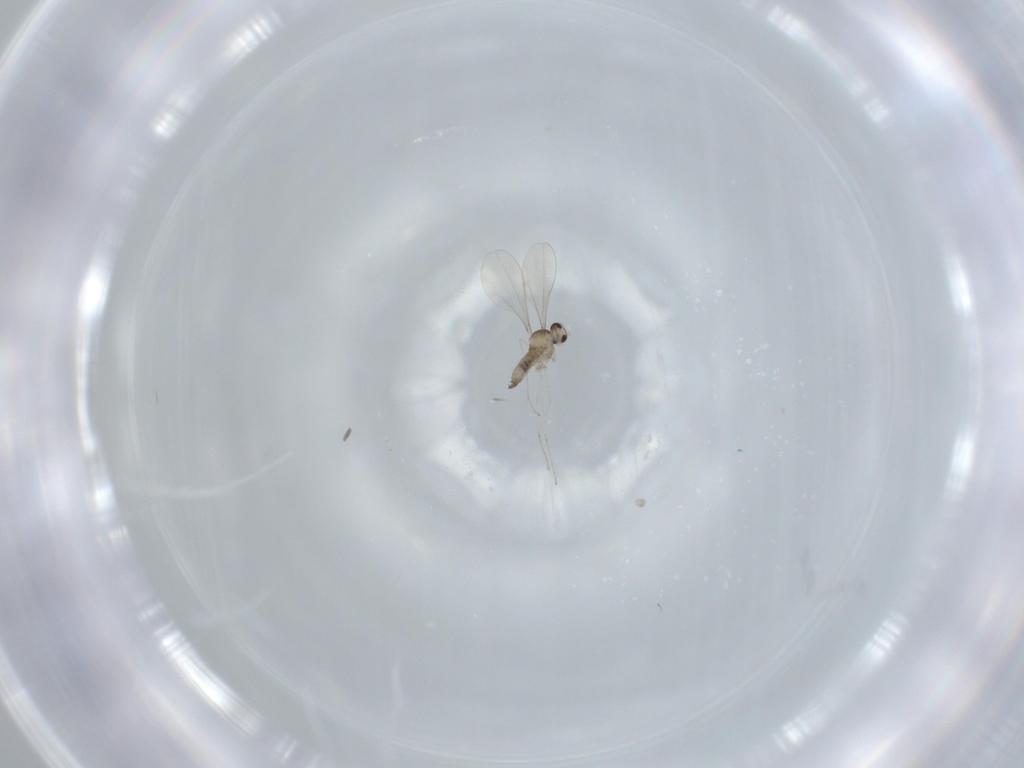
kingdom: Animalia
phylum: Arthropoda
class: Insecta
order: Diptera
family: Cecidomyiidae
